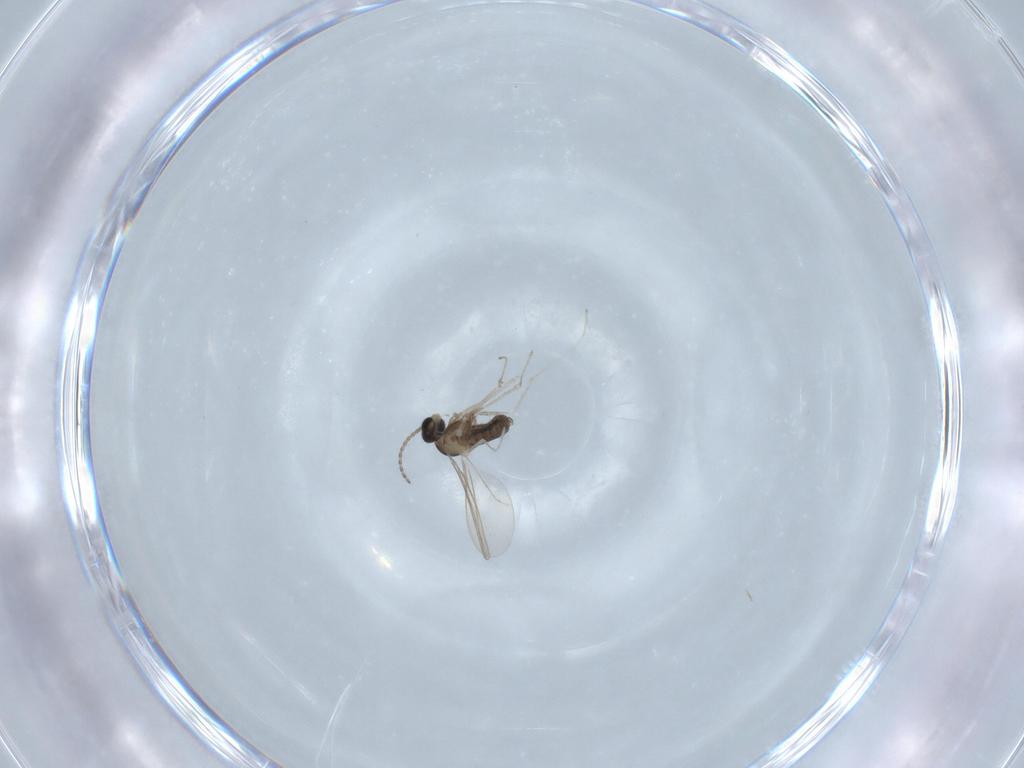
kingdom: Animalia
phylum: Arthropoda
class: Insecta
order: Diptera
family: Cecidomyiidae
